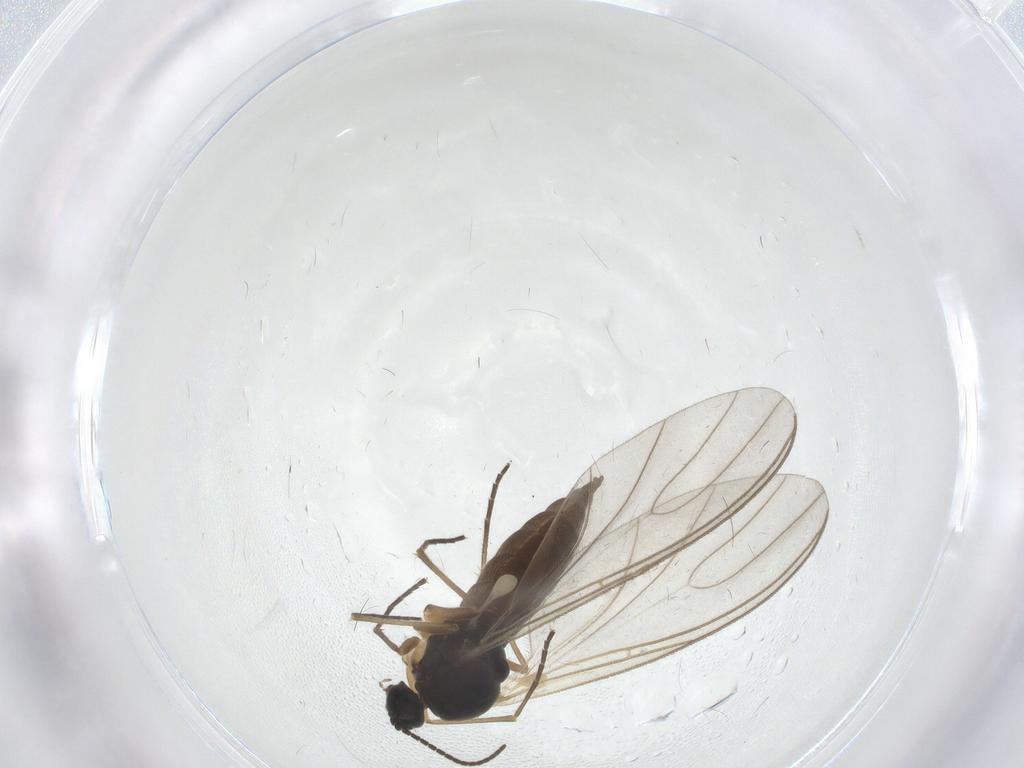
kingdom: Animalia
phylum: Arthropoda
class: Insecta
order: Diptera
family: Sciaridae
